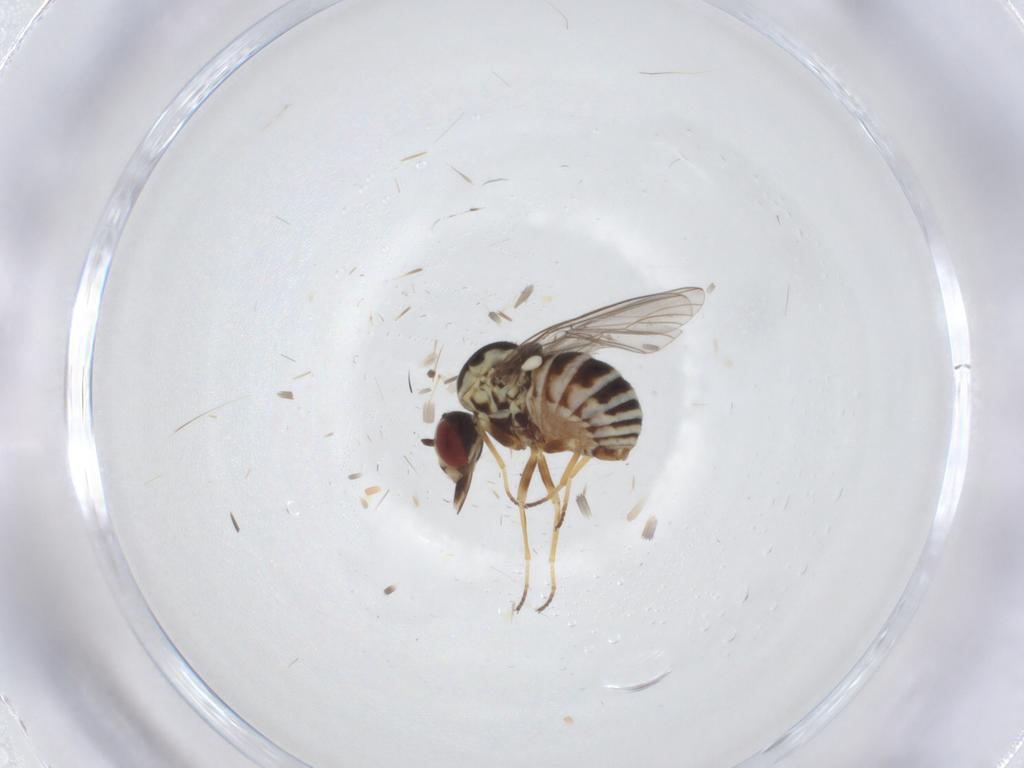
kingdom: Animalia
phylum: Arthropoda
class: Insecta
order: Diptera
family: Chloropidae
